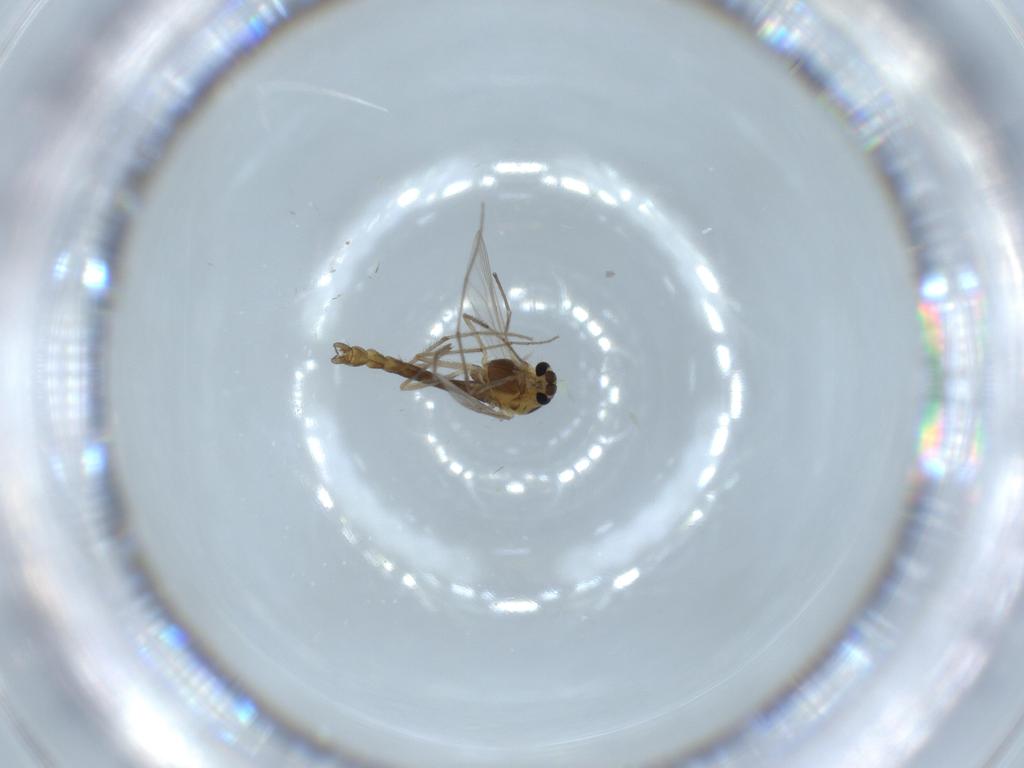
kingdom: Animalia
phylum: Arthropoda
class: Insecta
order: Diptera
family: Chironomidae
